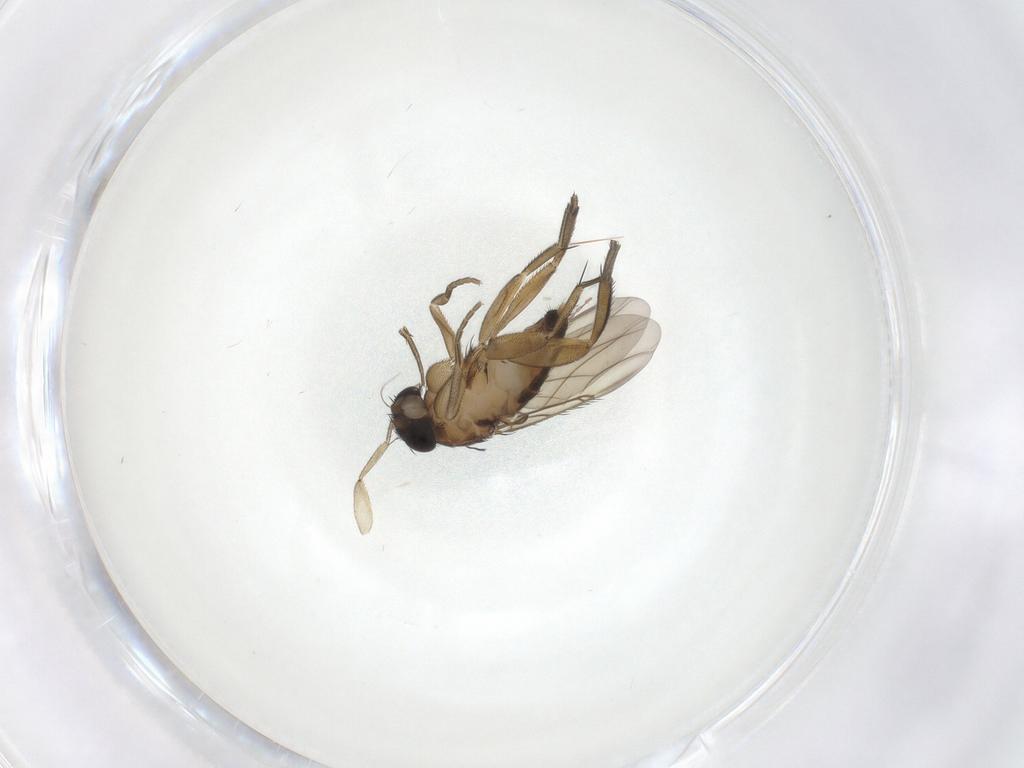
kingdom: Animalia
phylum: Arthropoda
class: Insecta
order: Diptera
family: Phoridae
